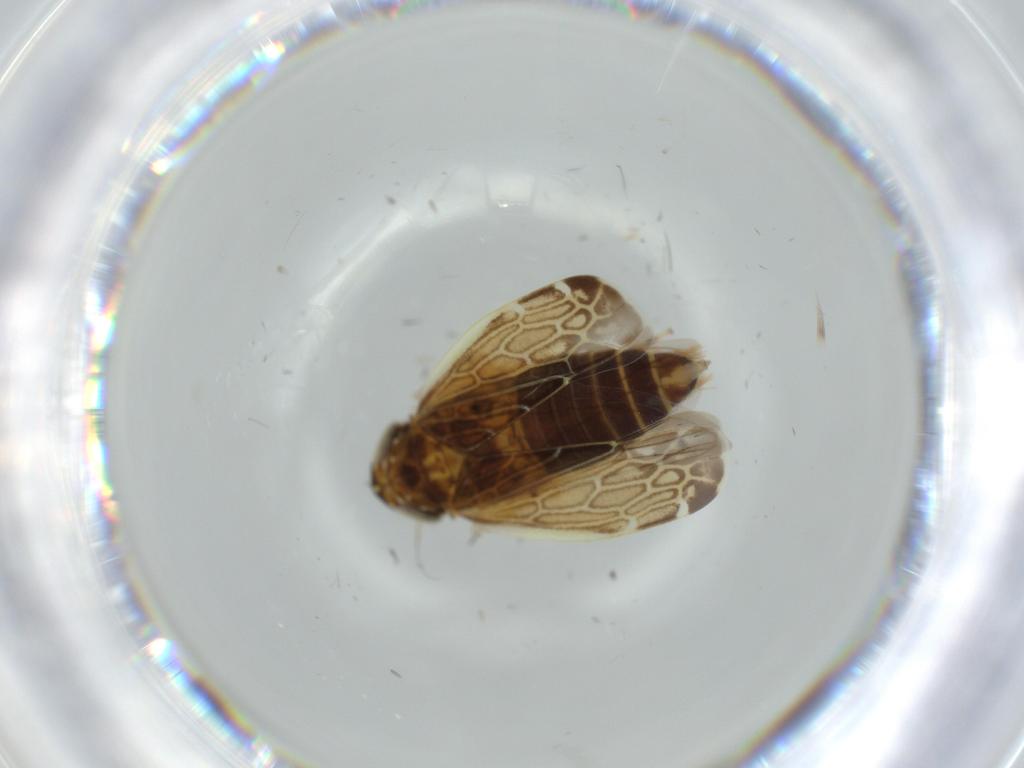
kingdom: Animalia
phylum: Arthropoda
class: Insecta
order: Hemiptera
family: Cicadellidae
